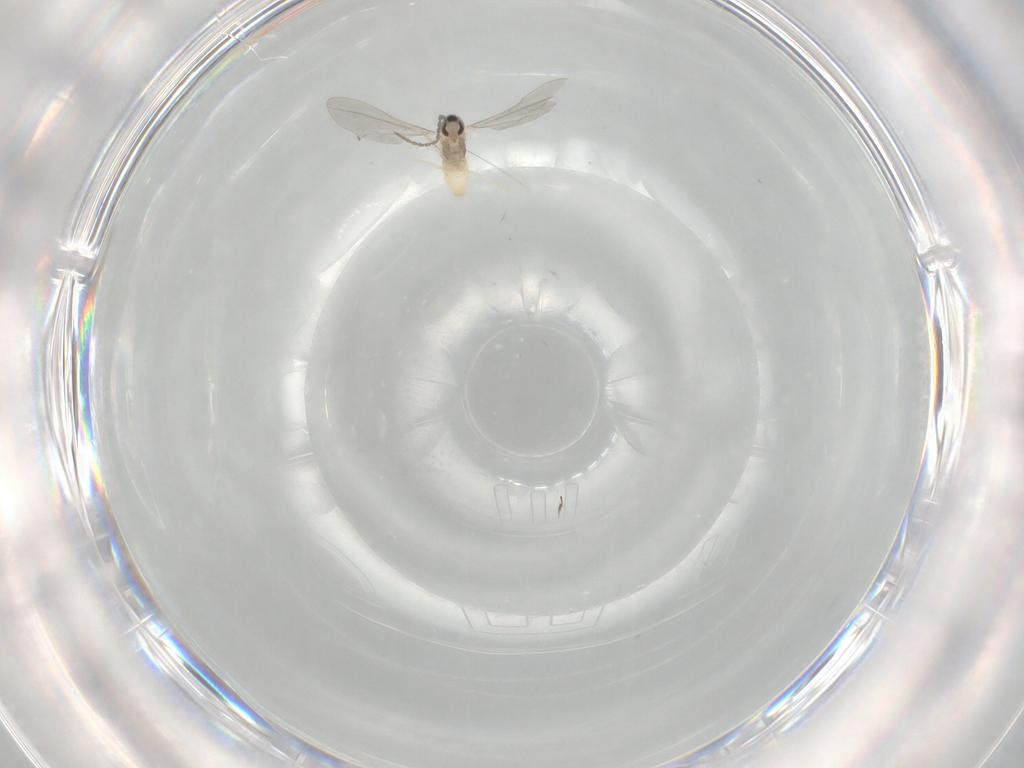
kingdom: Animalia
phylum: Arthropoda
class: Insecta
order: Diptera
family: Cecidomyiidae
